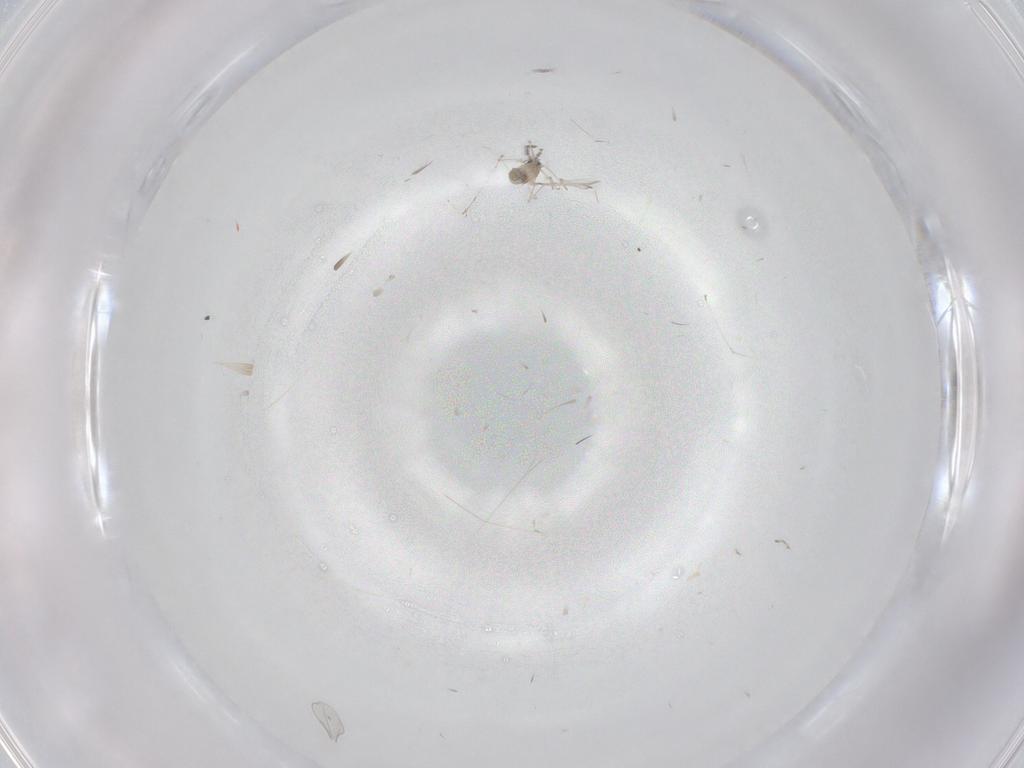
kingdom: Animalia
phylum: Arthropoda
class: Insecta
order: Diptera
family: Cecidomyiidae
